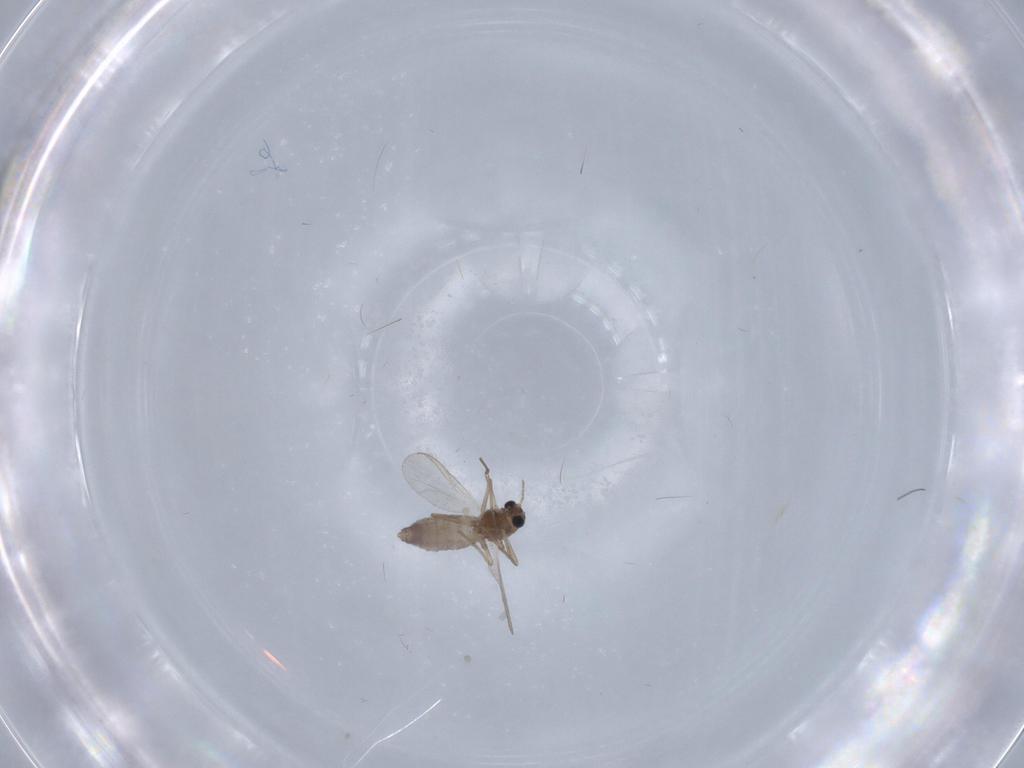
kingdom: Animalia
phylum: Arthropoda
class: Insecta
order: Diptera
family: Chironomidae
